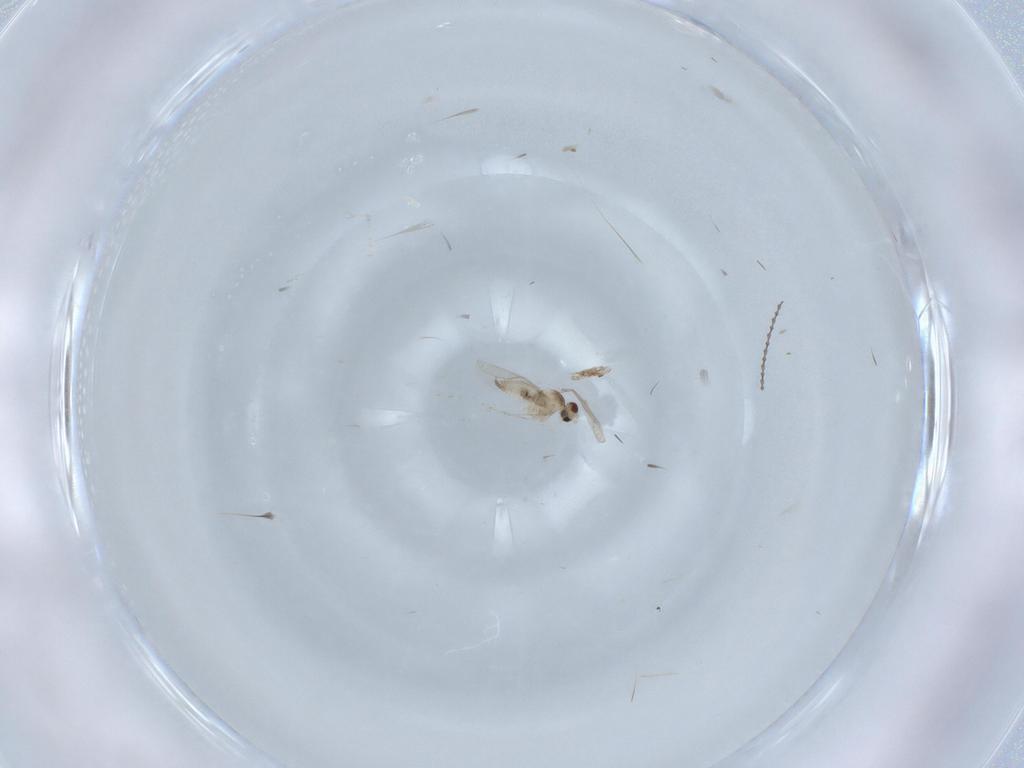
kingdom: Animalia
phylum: Arthropoda
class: Insecta
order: Diptera
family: Cecidomyiidae
